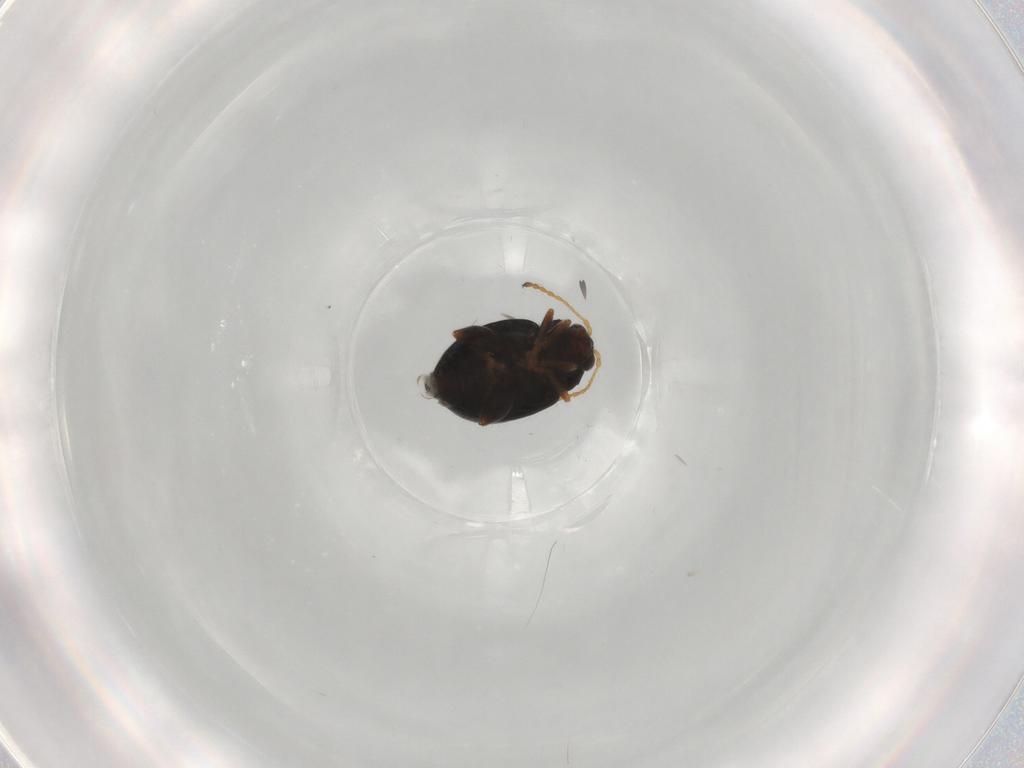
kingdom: Animalia
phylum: Arthropoda
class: Insecta
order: Coleoptera
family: Chrysomelidae
